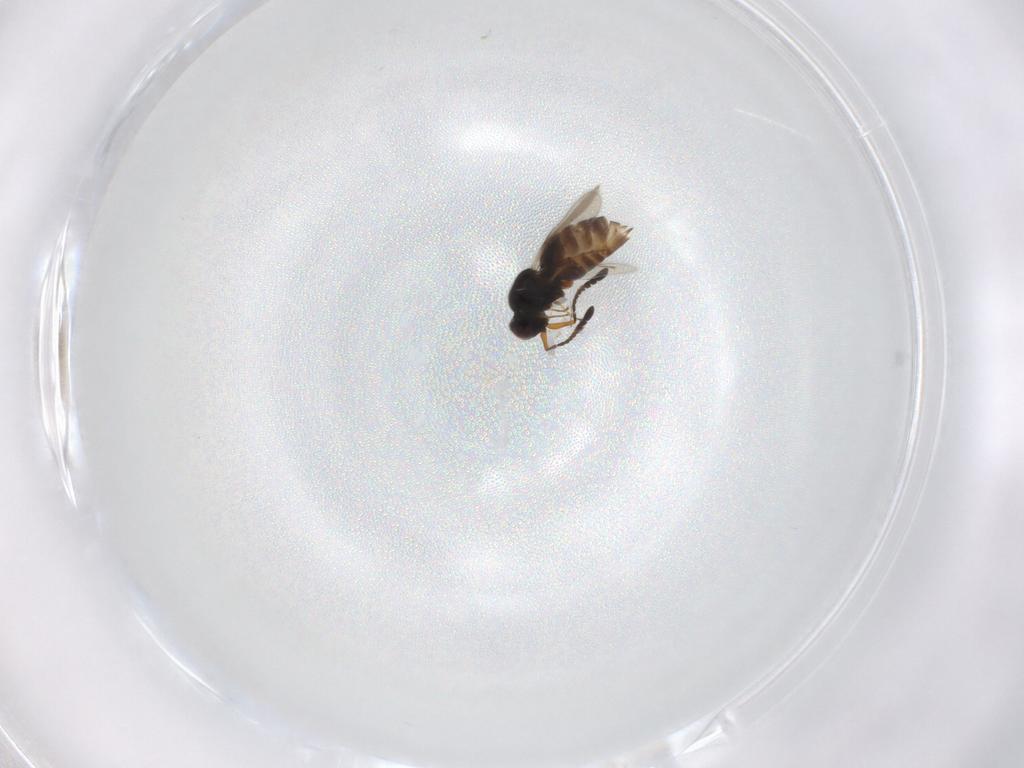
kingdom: Animalia
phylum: Arthropoda
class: Insecta
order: Hymenoptera
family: Ceraphronidae
